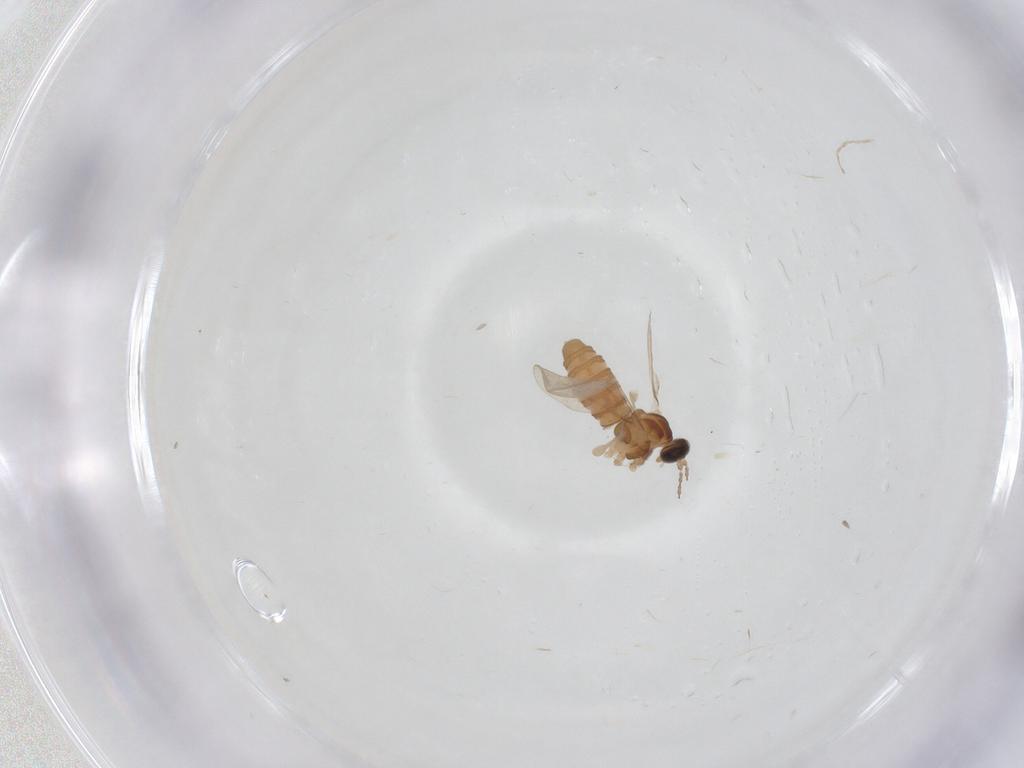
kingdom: Animalia
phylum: Arthropoda
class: Insecta
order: Diptera
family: Cecidomyiidae
